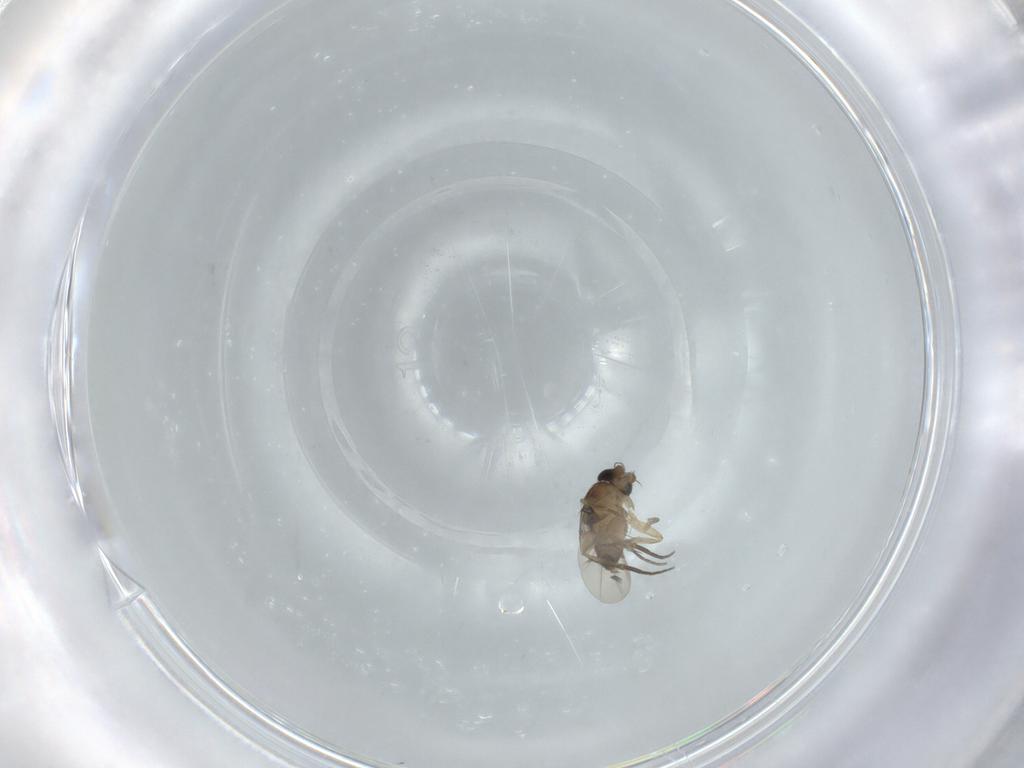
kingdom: Animalia
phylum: Arthropoda
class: Insecta
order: Diptera
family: Phoridae
